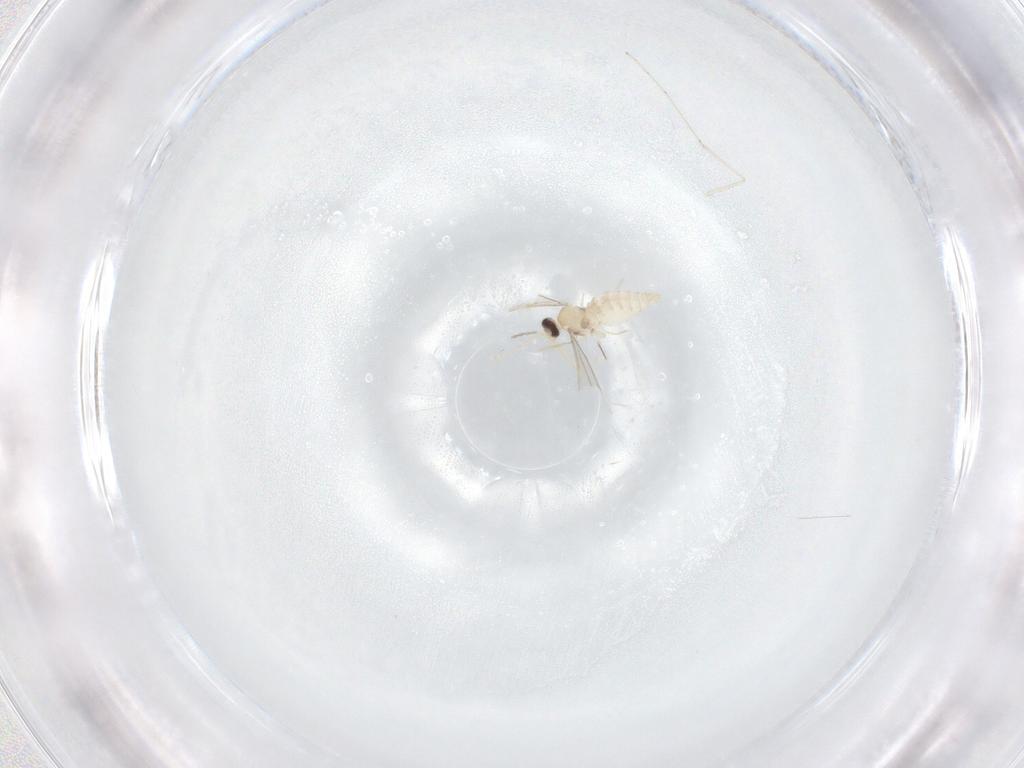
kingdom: Animalia
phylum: Arthropoda
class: Insecta
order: Diptera
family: Cecidomyiidae
